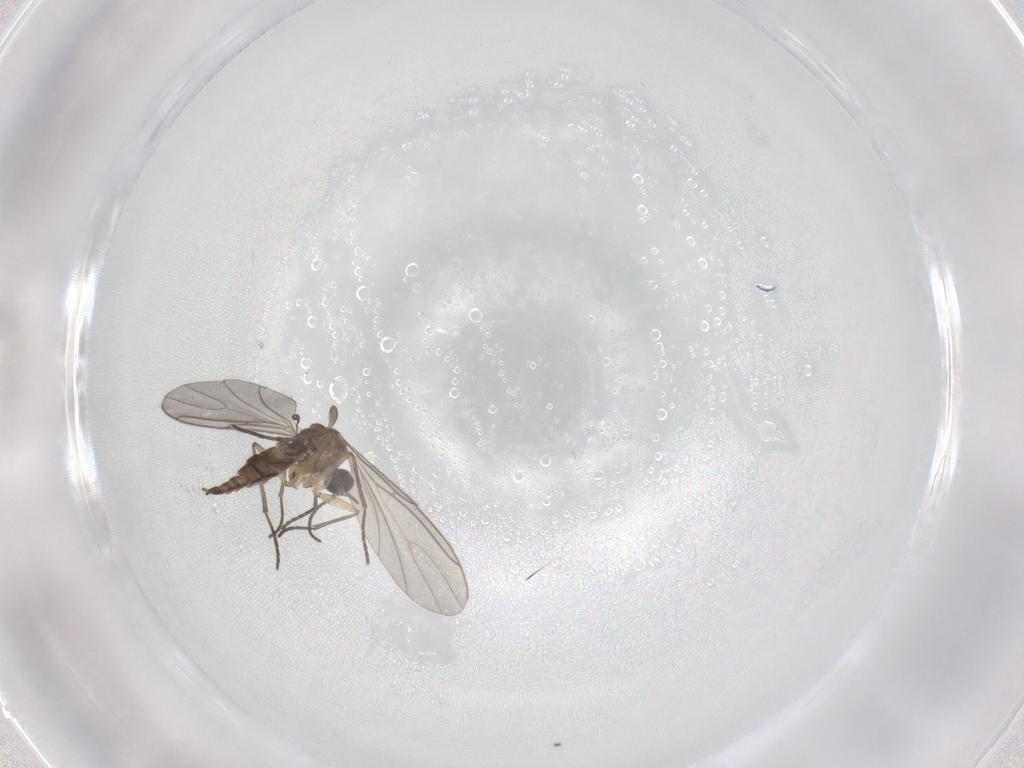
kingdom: Animalia
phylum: Arthropoda
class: Insecta
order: Diptera
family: Sciaridae
